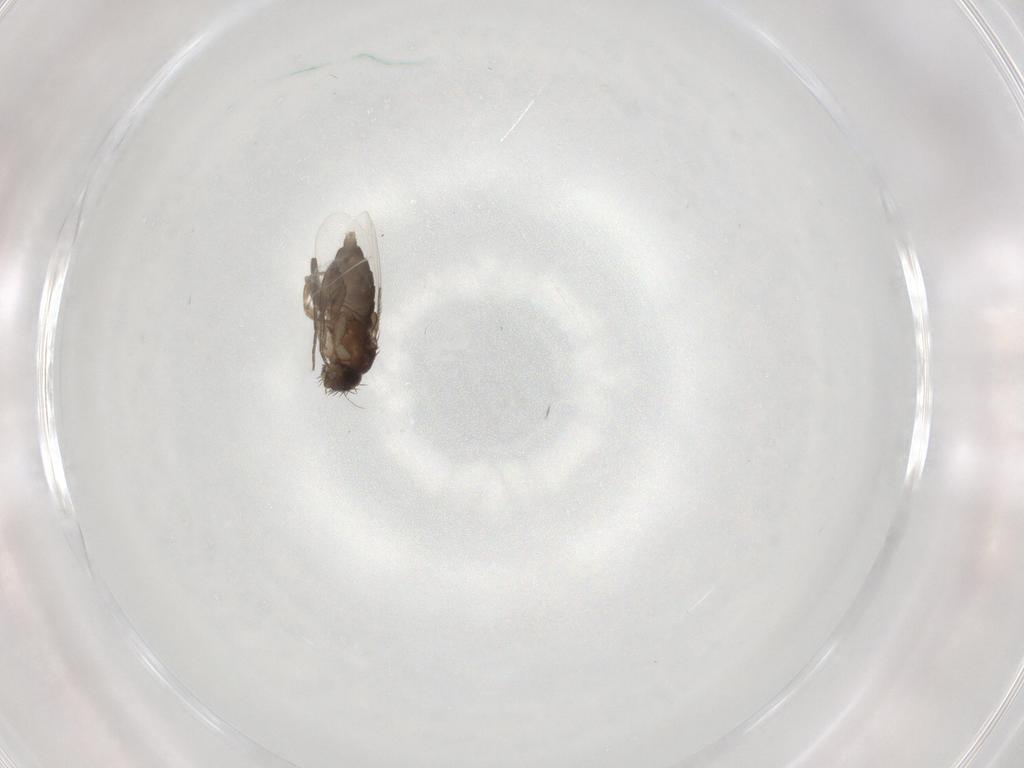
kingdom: Animalia
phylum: Arthropoda
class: Insecta
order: Diptera
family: Phoridae
